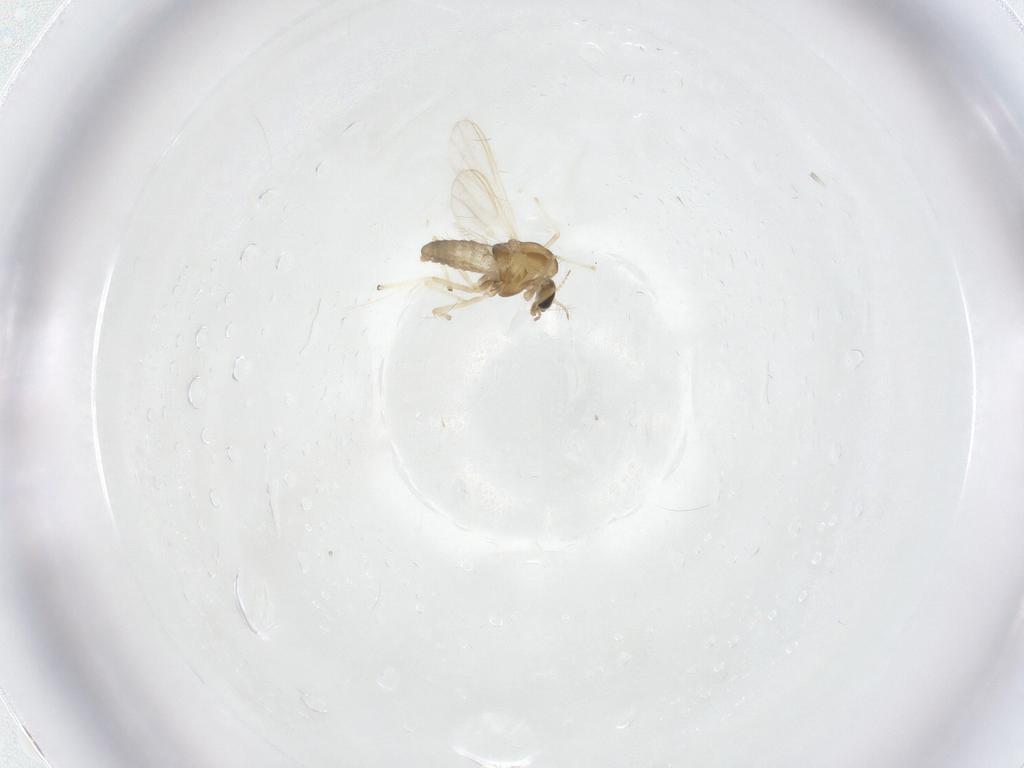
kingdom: Animalia
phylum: Arthropoda
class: Insecta
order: Diptera
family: Chironomidae
